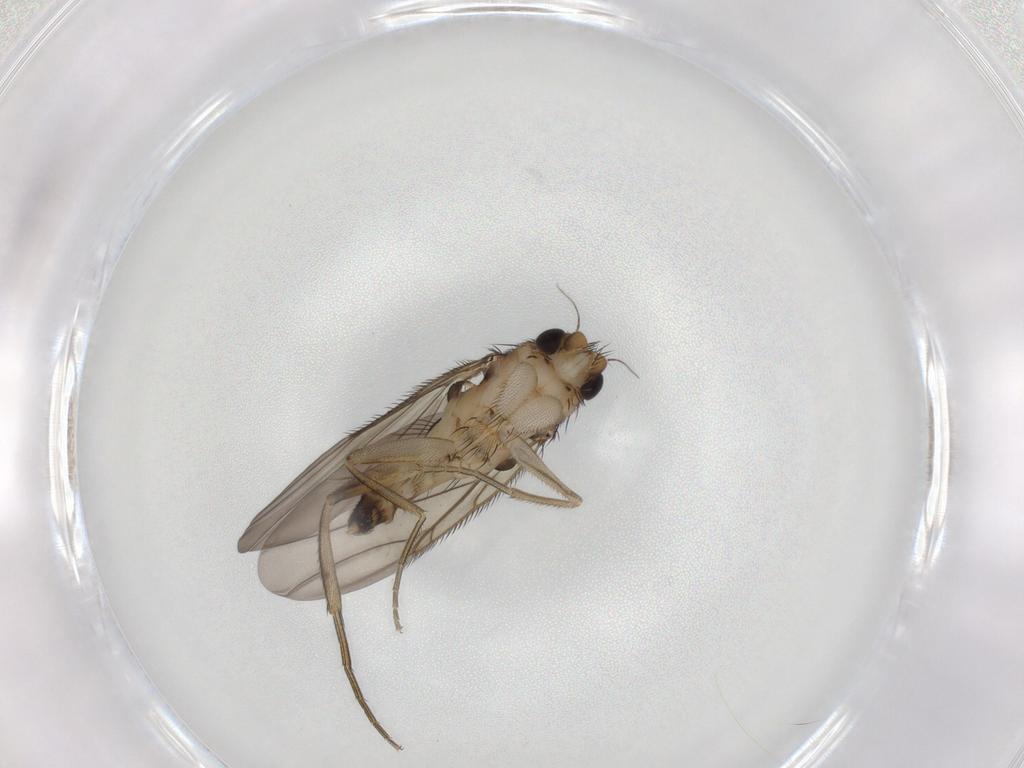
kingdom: Animalia
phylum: Arthropoda
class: Insecta
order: Diptera
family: Phoridae
